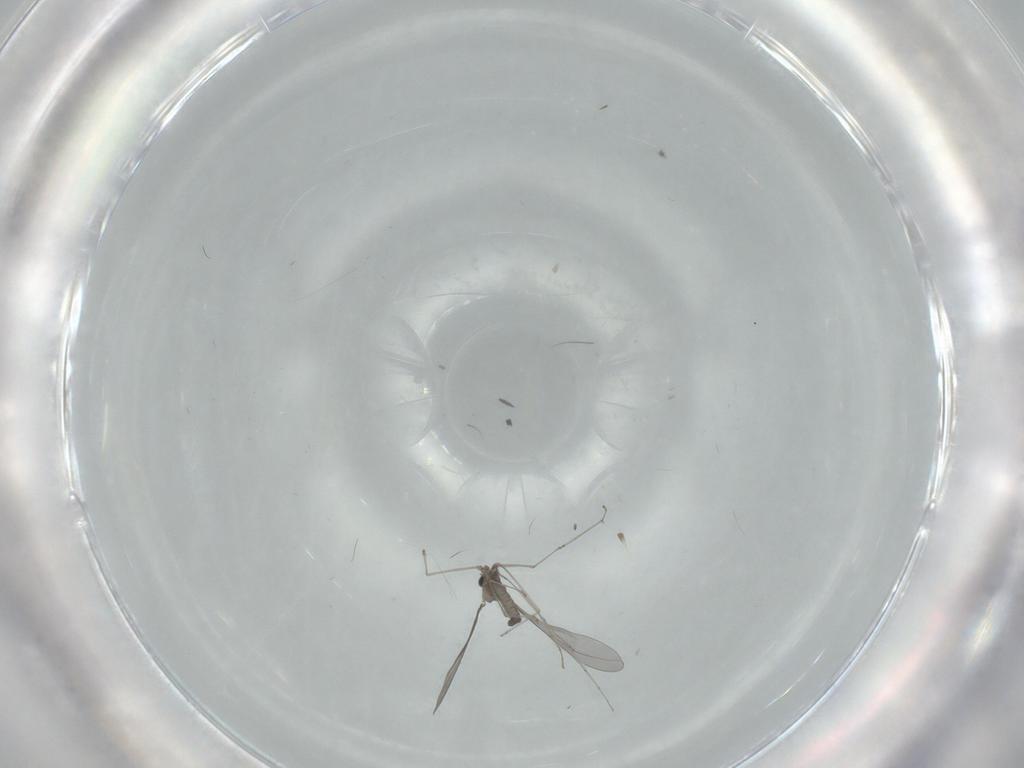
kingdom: Animalia
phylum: Arthropoda
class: Insecta
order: Diptera
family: Cecidomyiidae
